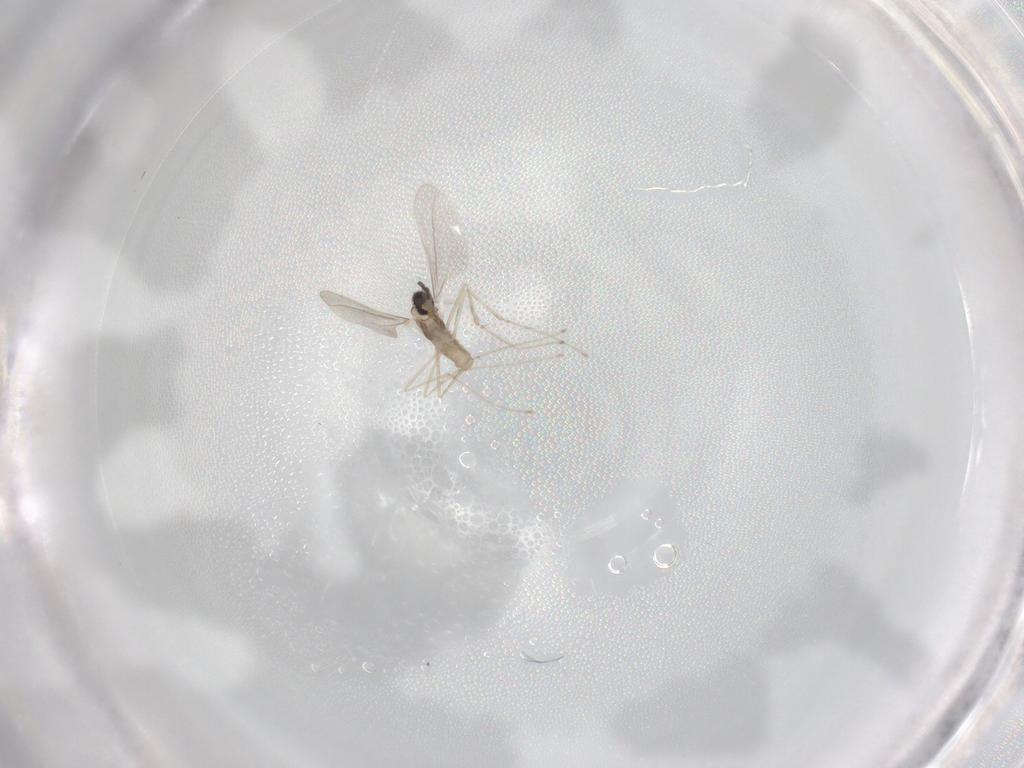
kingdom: Animalia
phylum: Arthropoda
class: Insecta
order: Diptera
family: Cecidomyiidae
